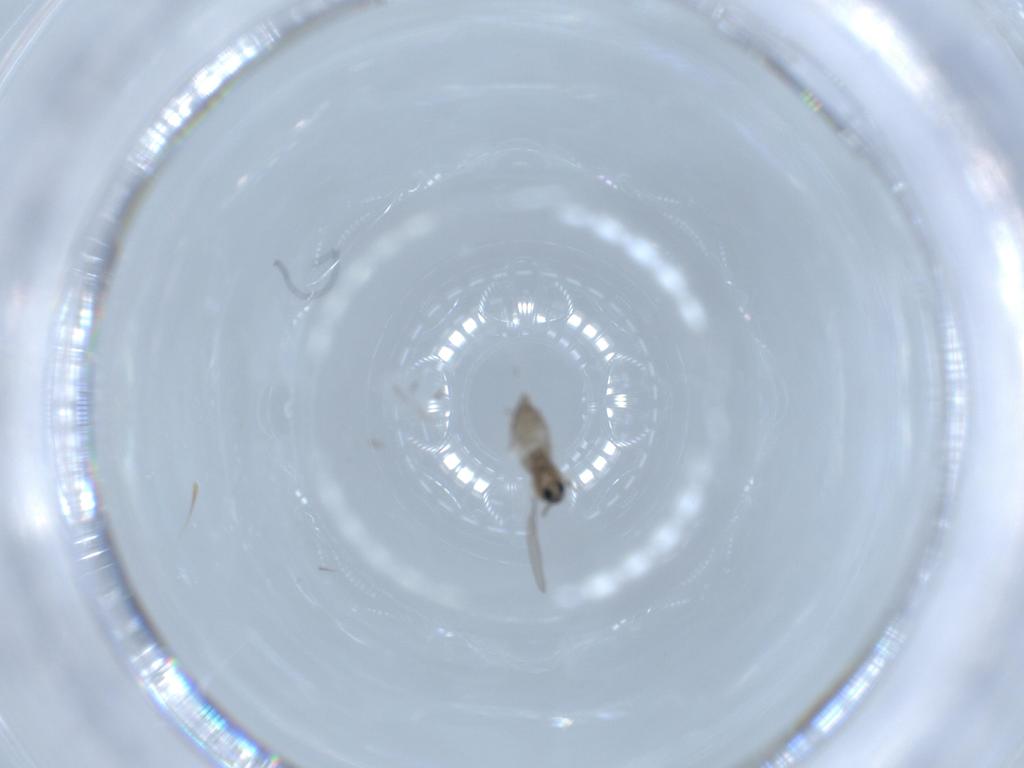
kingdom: Animalia
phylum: Arthropoda
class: Insecta
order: Diptera
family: Cecidomyiidae
